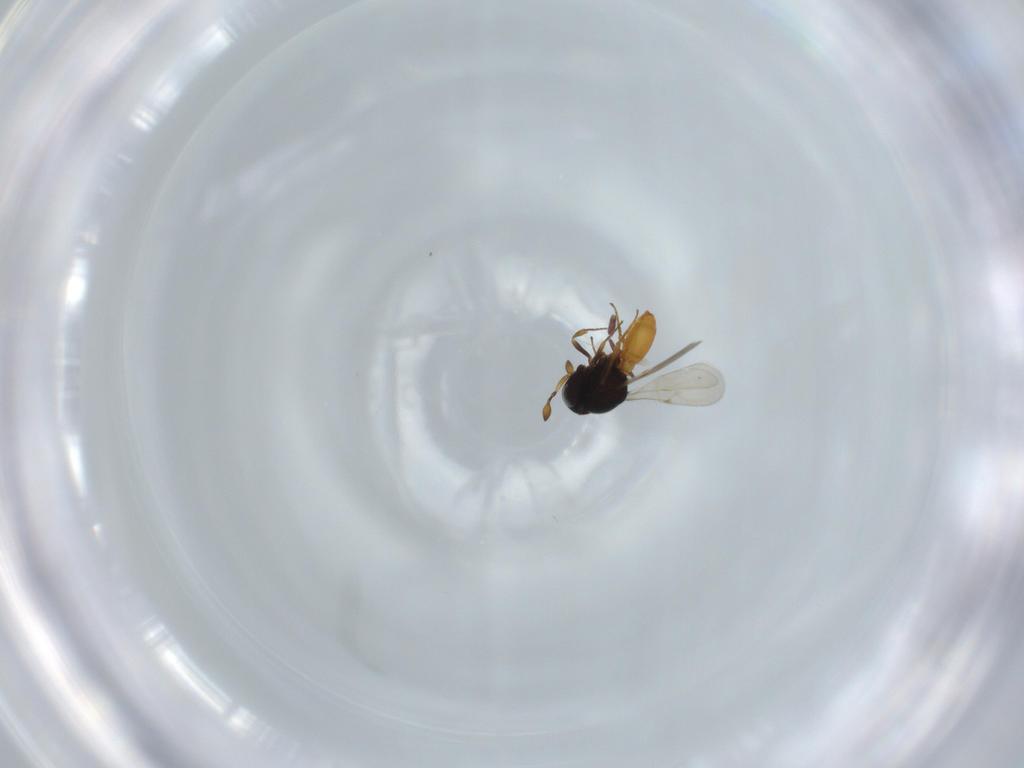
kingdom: Animalia
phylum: Arthropoda
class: Insecta
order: Hymenoptera
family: Scelionidae
